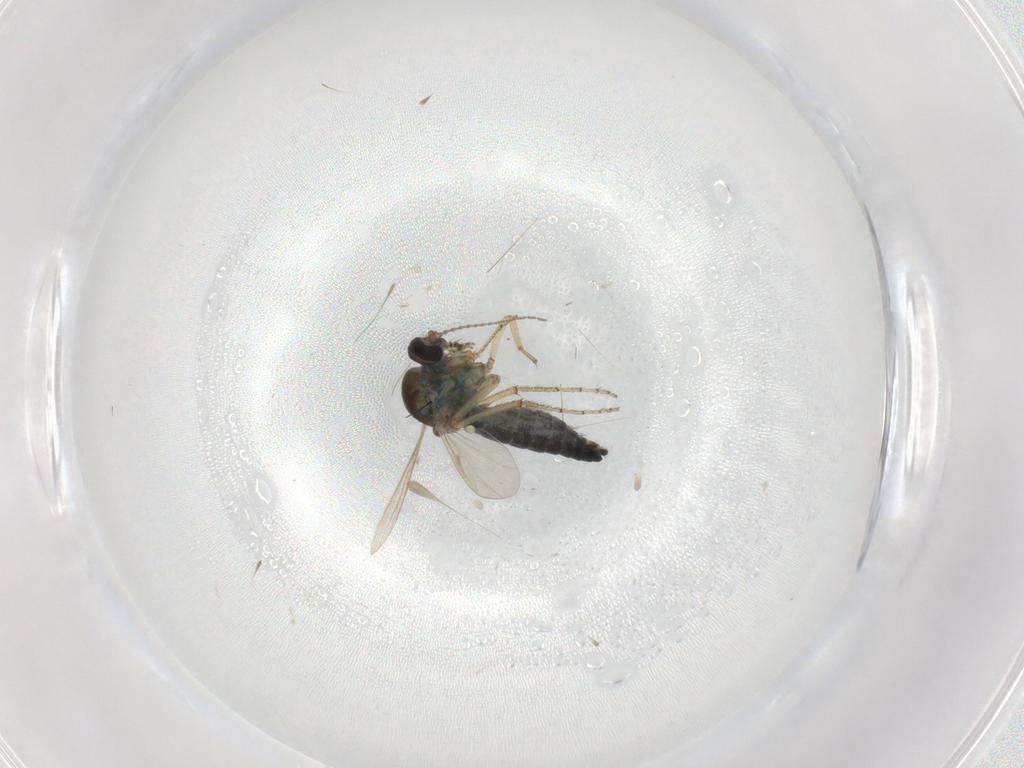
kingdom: Animalia
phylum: Arthropoda
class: Insecta
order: Diptera
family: Ceratopogonidae
